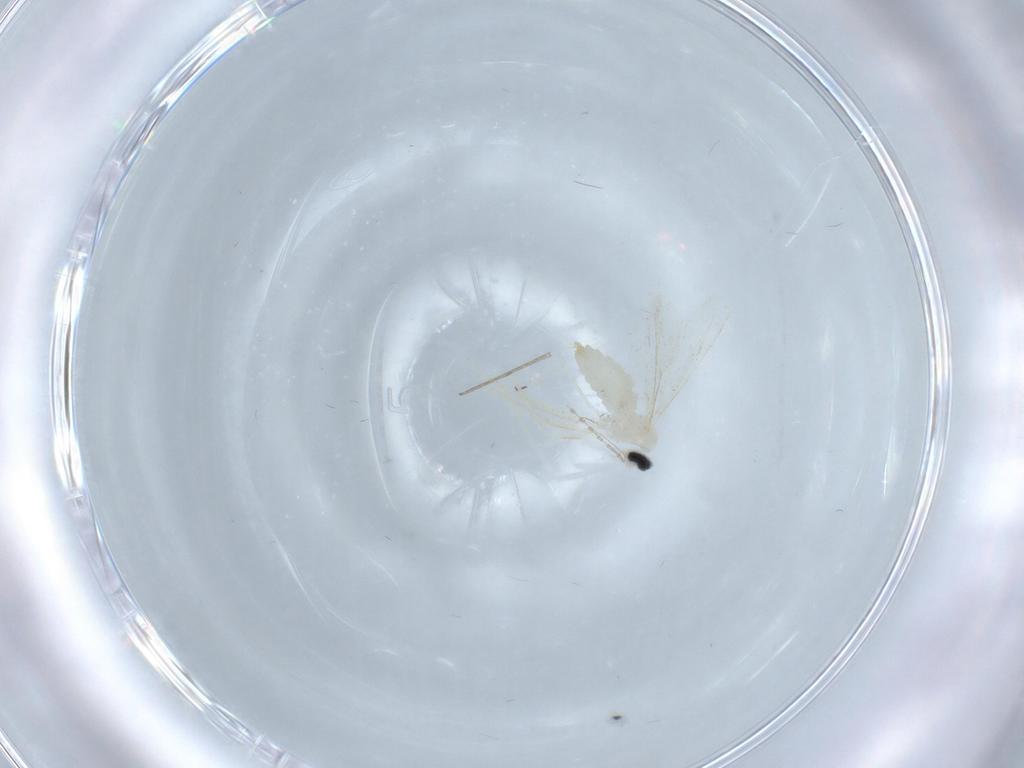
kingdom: Animalia
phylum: Arthropoda
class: Insecta
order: Diptera
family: Cecidomyiidae
